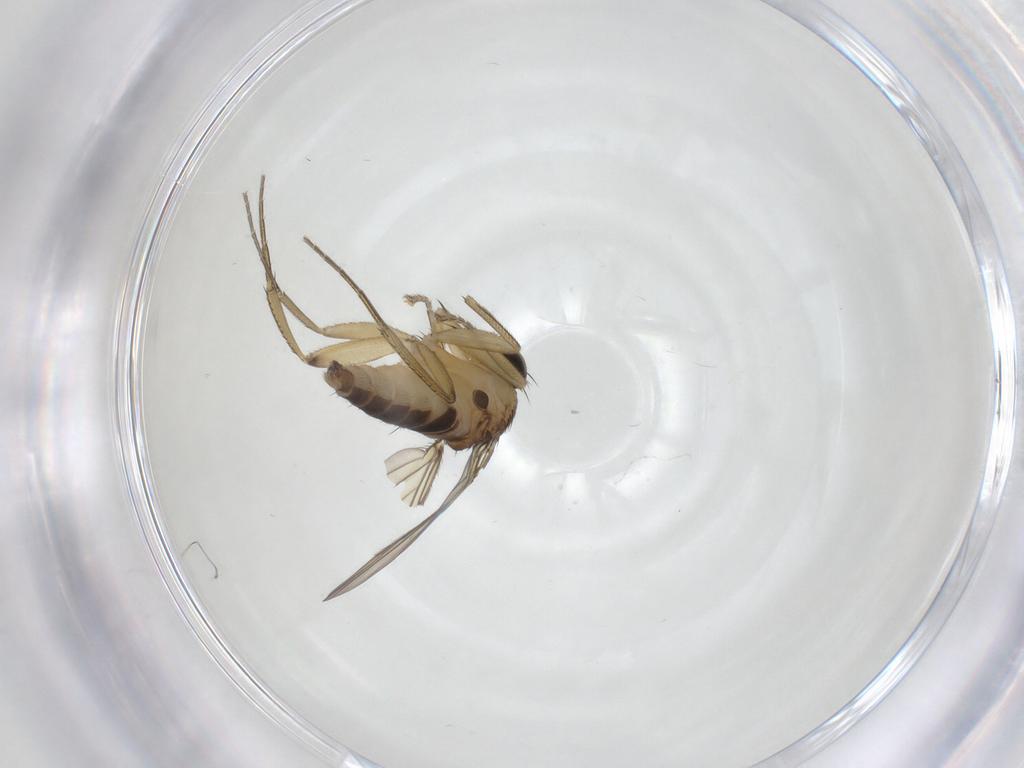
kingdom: Animalia
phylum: Arthropoda
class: Insecta
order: Diptera
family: Phoridae
